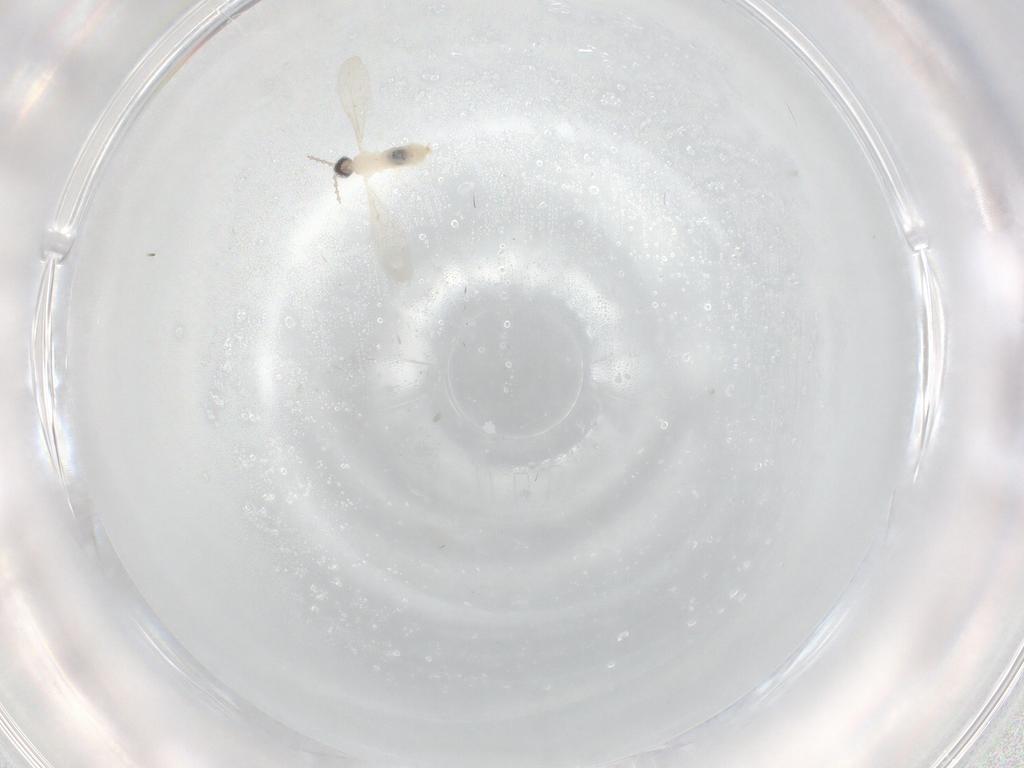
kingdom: Animalia
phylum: Arthropoda
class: Insecta
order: Diptera
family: Cecidomyiidae
